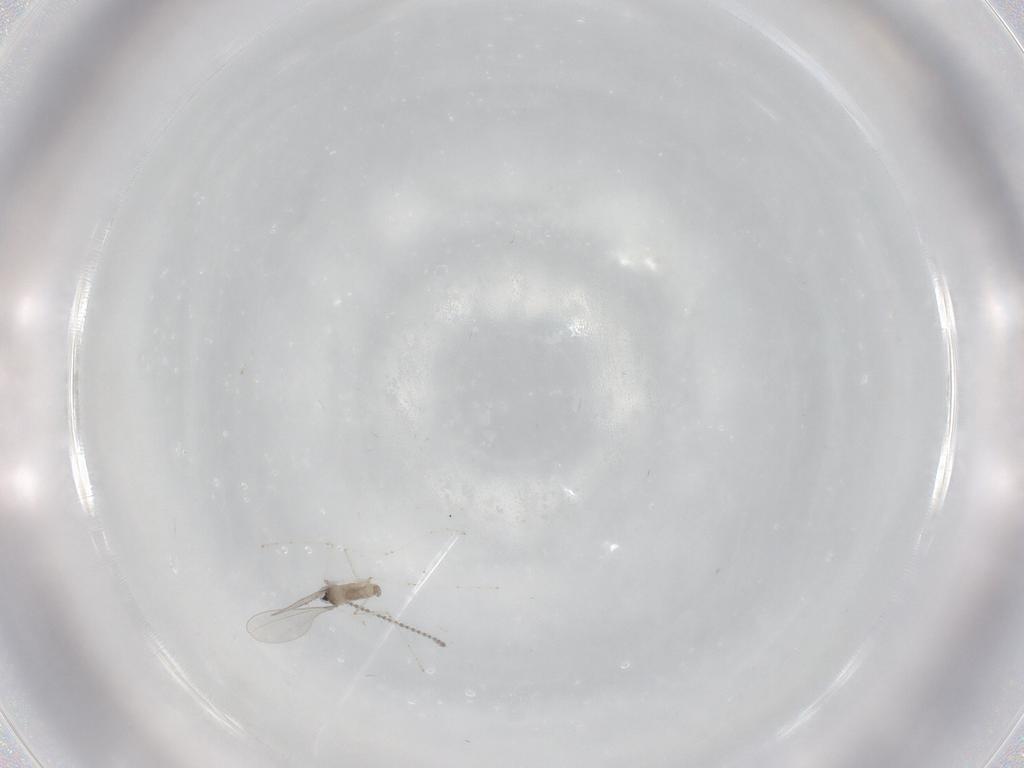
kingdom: Animalia
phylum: Arthropoda
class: Insecta
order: Diptera
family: Cecidomyiidae
